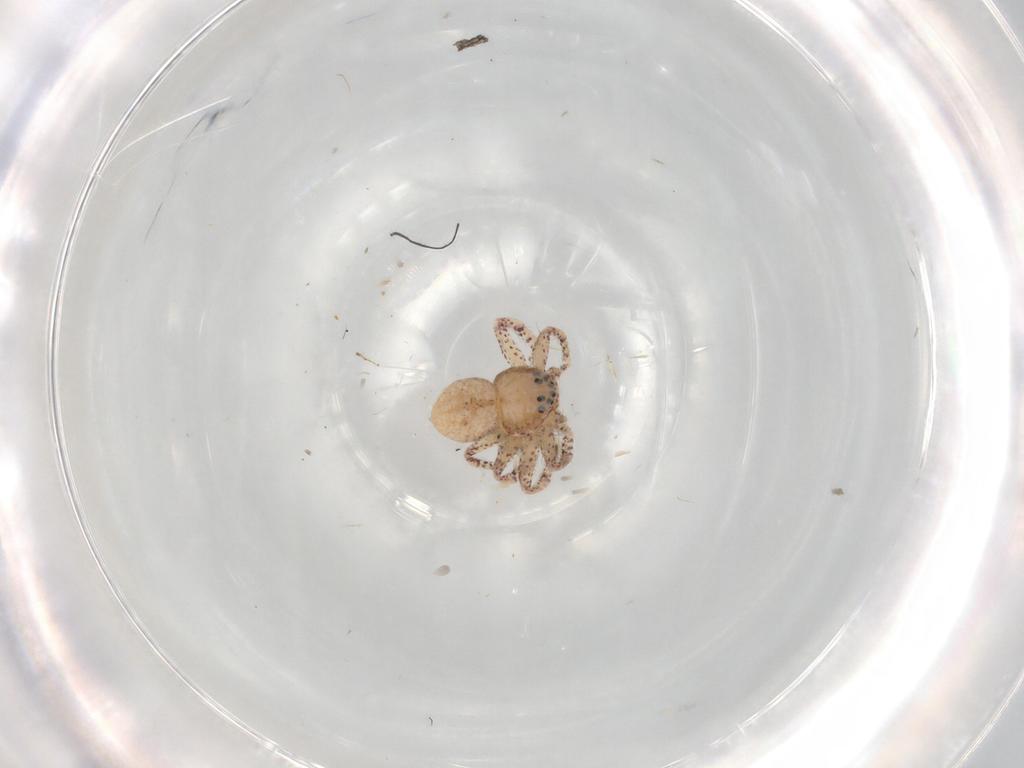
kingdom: Animalia
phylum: Arthropoda
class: Arachnida
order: Araneae
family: Philodromidae
